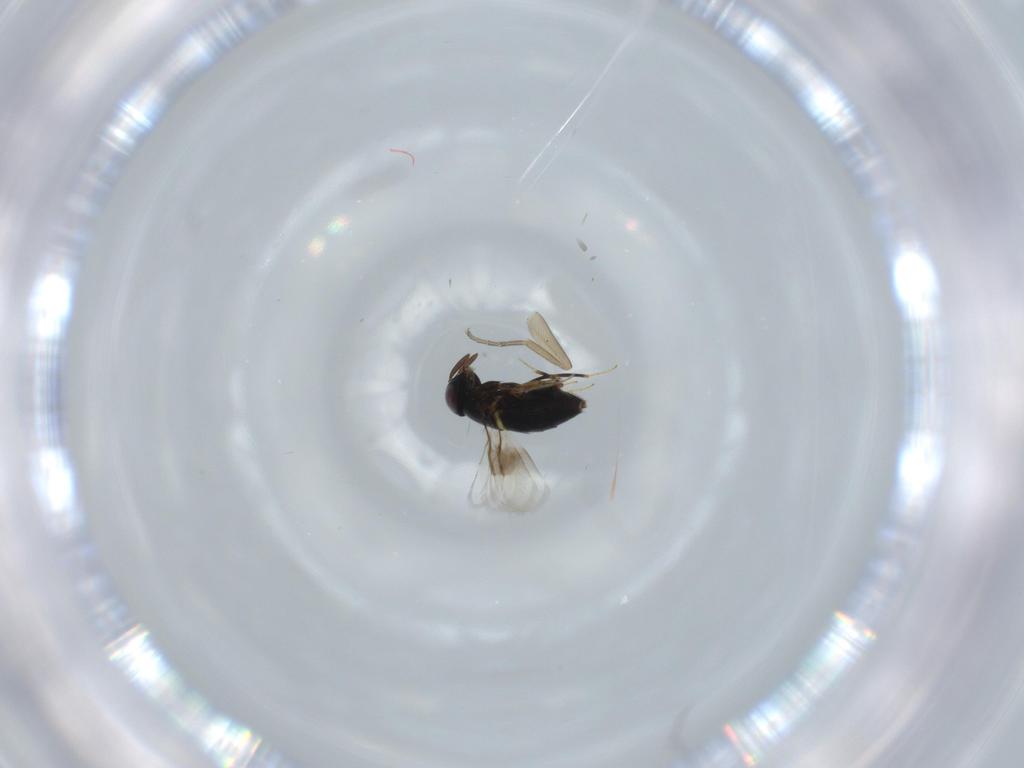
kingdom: Animalia
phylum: Arthropoda
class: Insecta
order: Hymenoptera
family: Signiphoridae
